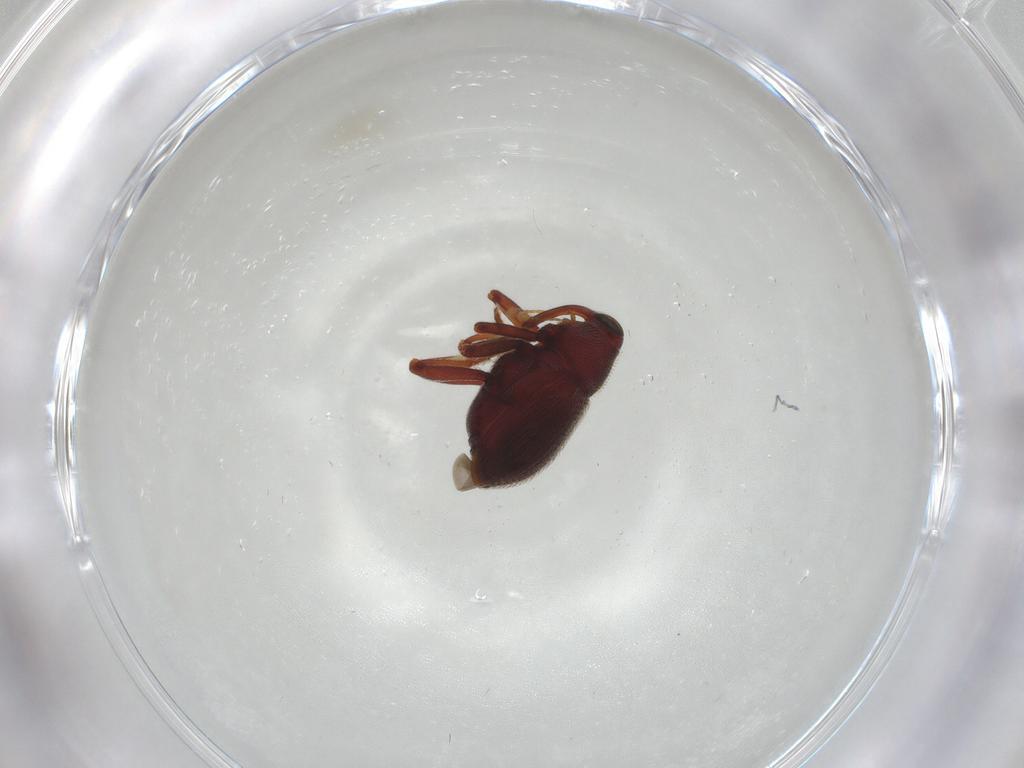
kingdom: Animalia
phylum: Arthropoda
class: Insecta
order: Coleoptera
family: Curculionidae
